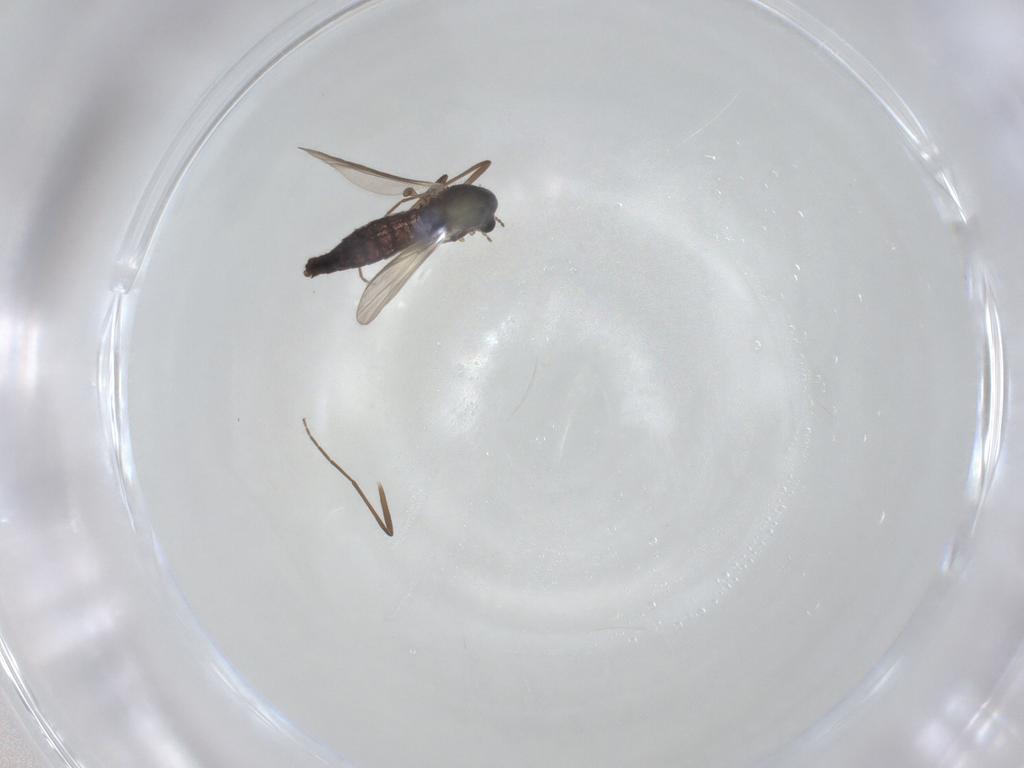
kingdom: Animalia
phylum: Arthropoda
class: Insecta
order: Diptera
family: Chironomidae
